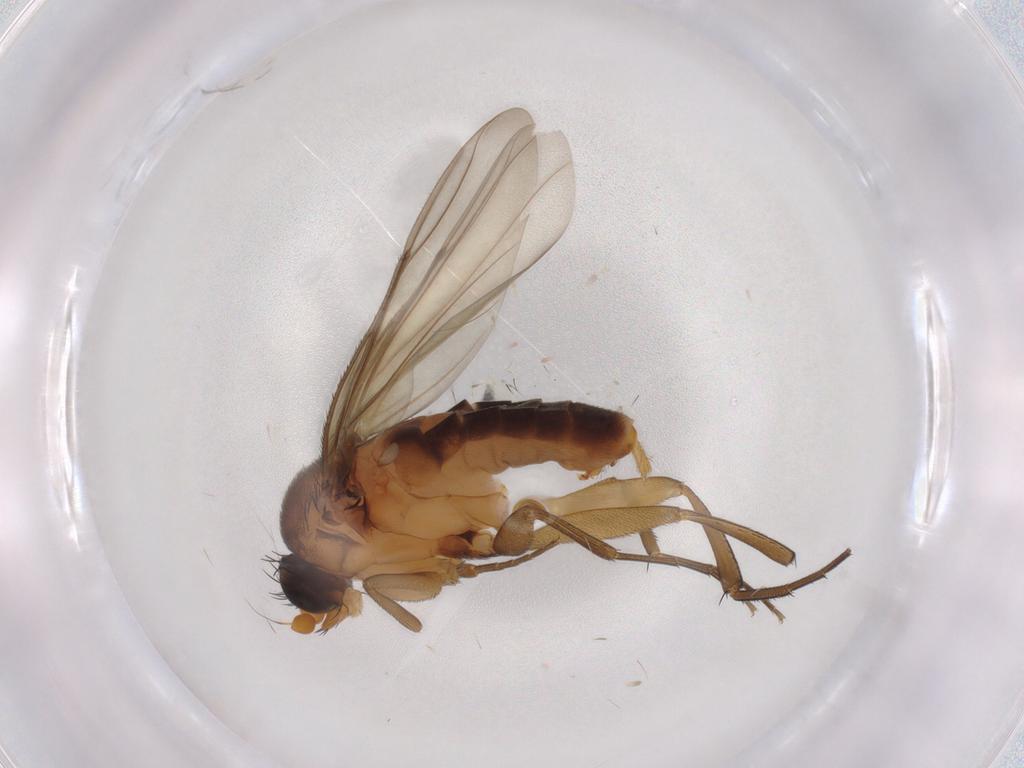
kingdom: Animalia
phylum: Arthropoda
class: Insecta
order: Diptera
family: Phoridae
